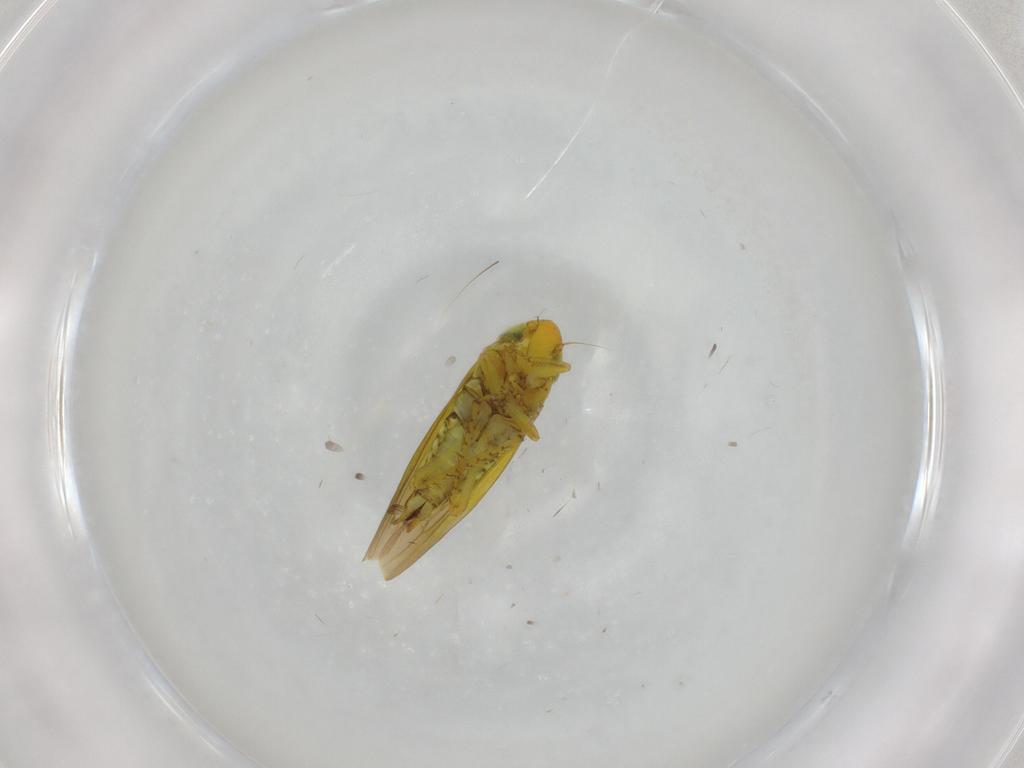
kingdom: Animalia
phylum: Arthropoda
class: Insecta
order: Hemiptera
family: Cicadellidae
